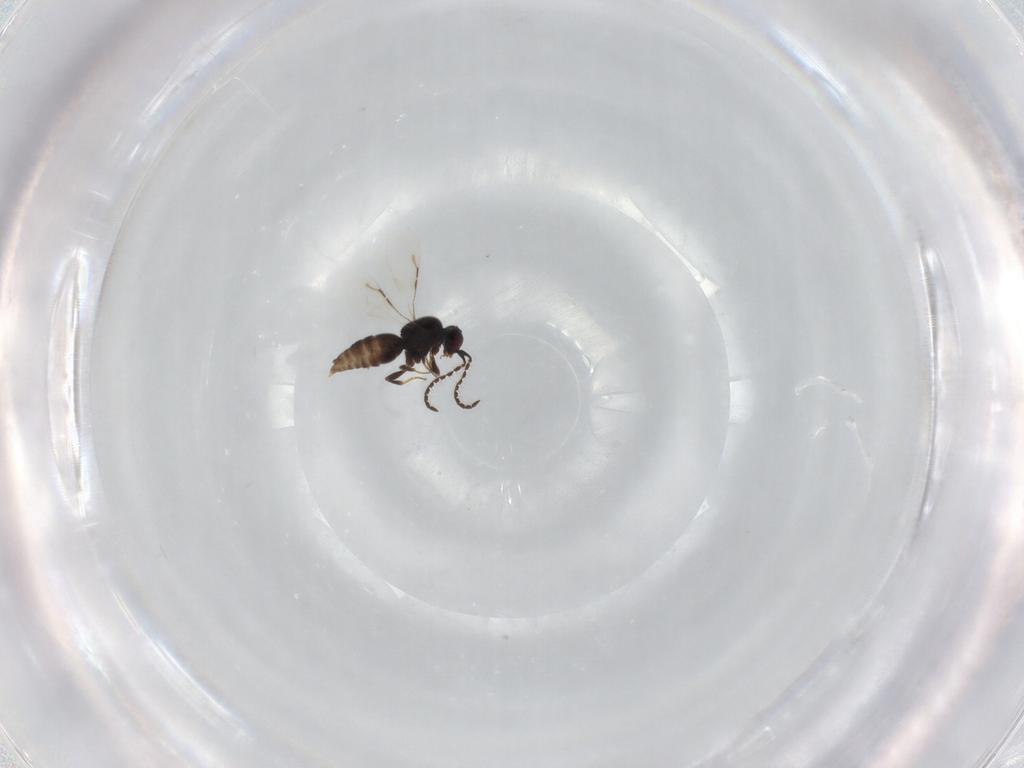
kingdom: Animalia
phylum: Arthropoda
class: Insecta
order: Hymenoptera
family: Ceraphronidae
